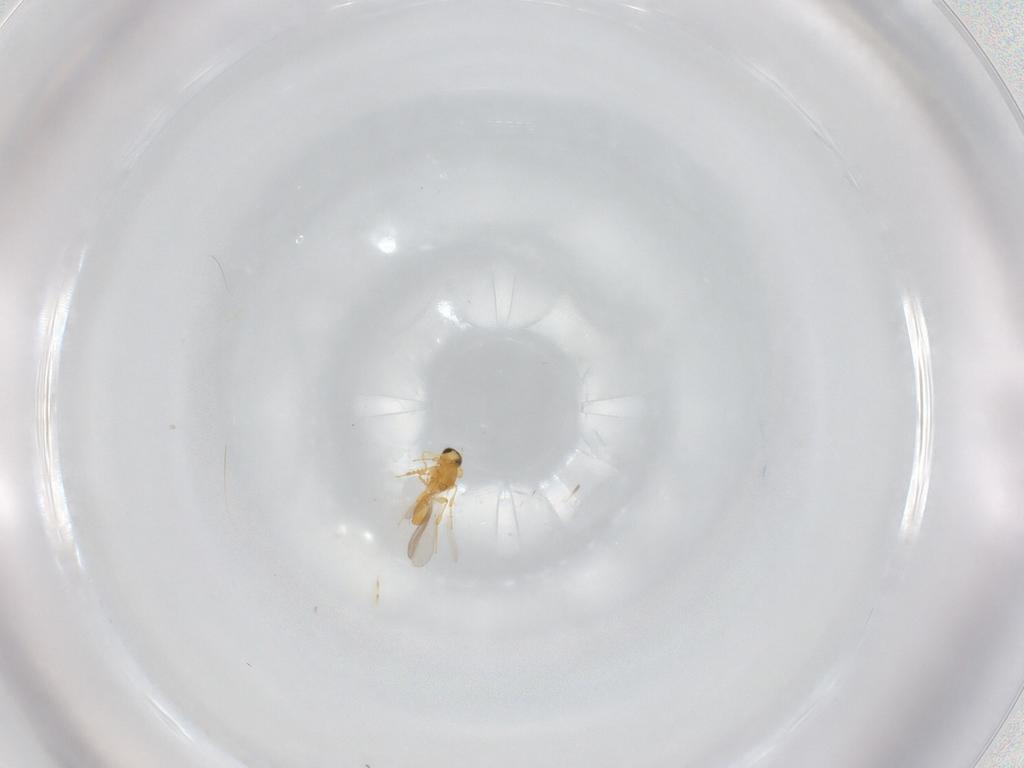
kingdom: Animalia
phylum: Arthropoda
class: Insecta
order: Hymenoptera
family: Platygastridae
